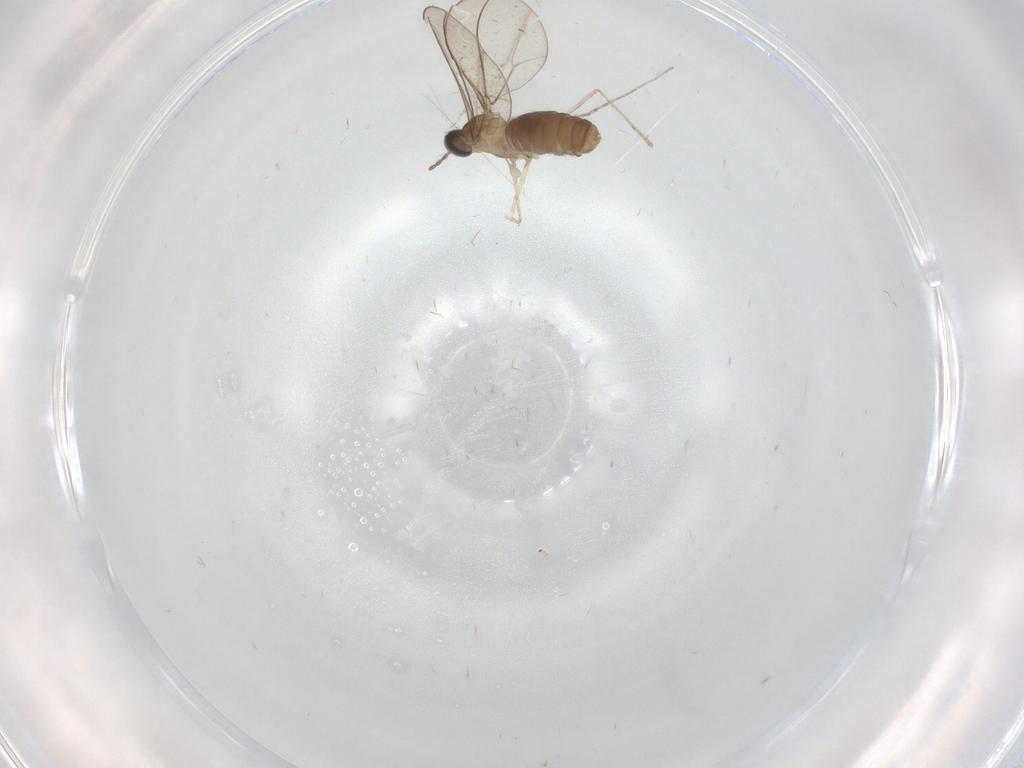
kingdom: Animalia
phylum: Arthropoda
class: Insecta
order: Diptera
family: Cecidomyiidae
